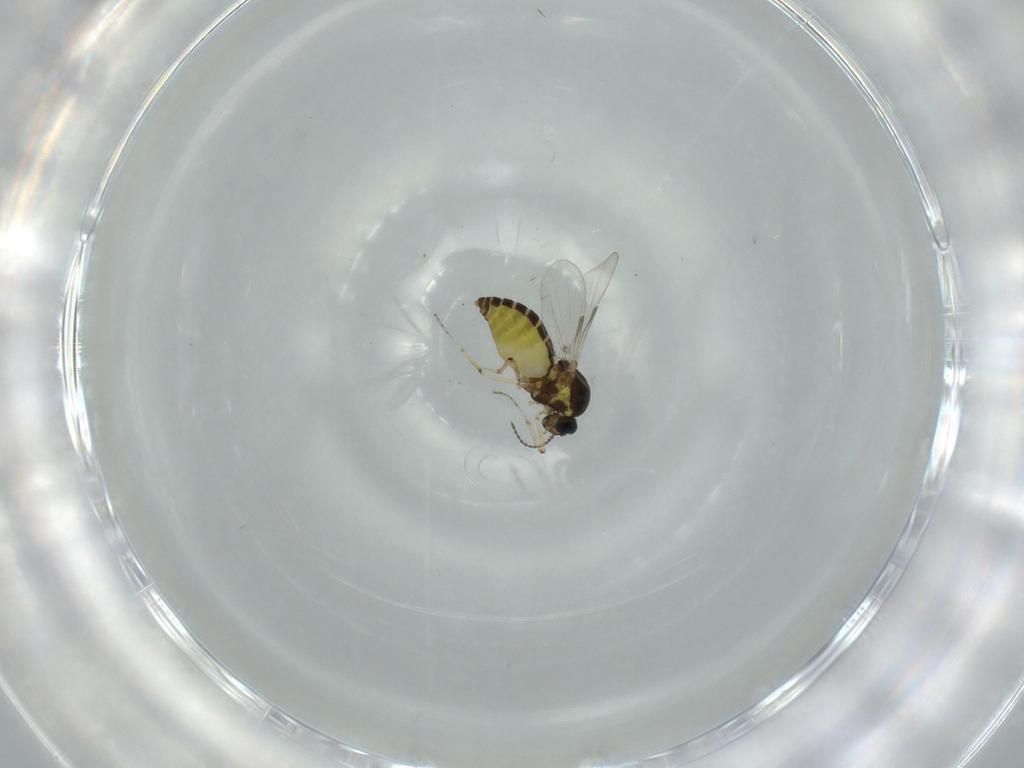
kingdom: Animalia
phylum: Arthropoda
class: Insecta
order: Diptera
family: Ceratopogonidae
